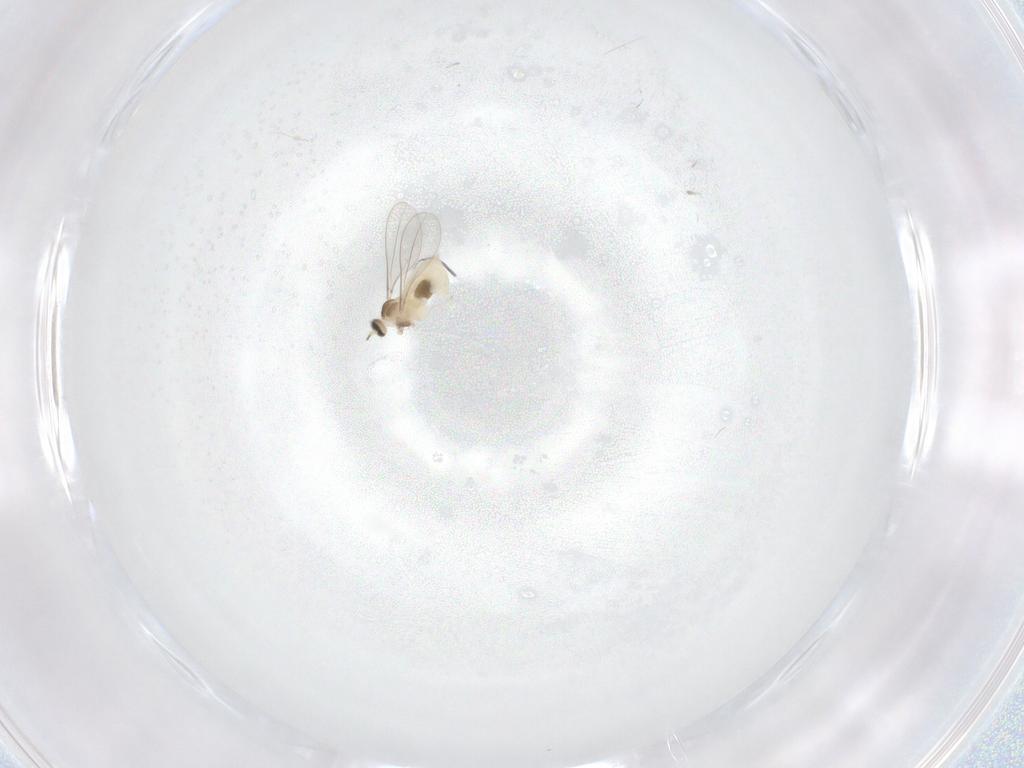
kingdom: Animalia
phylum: Arthropoda
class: Insecta
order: Diptera
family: Cecidomyiidae
